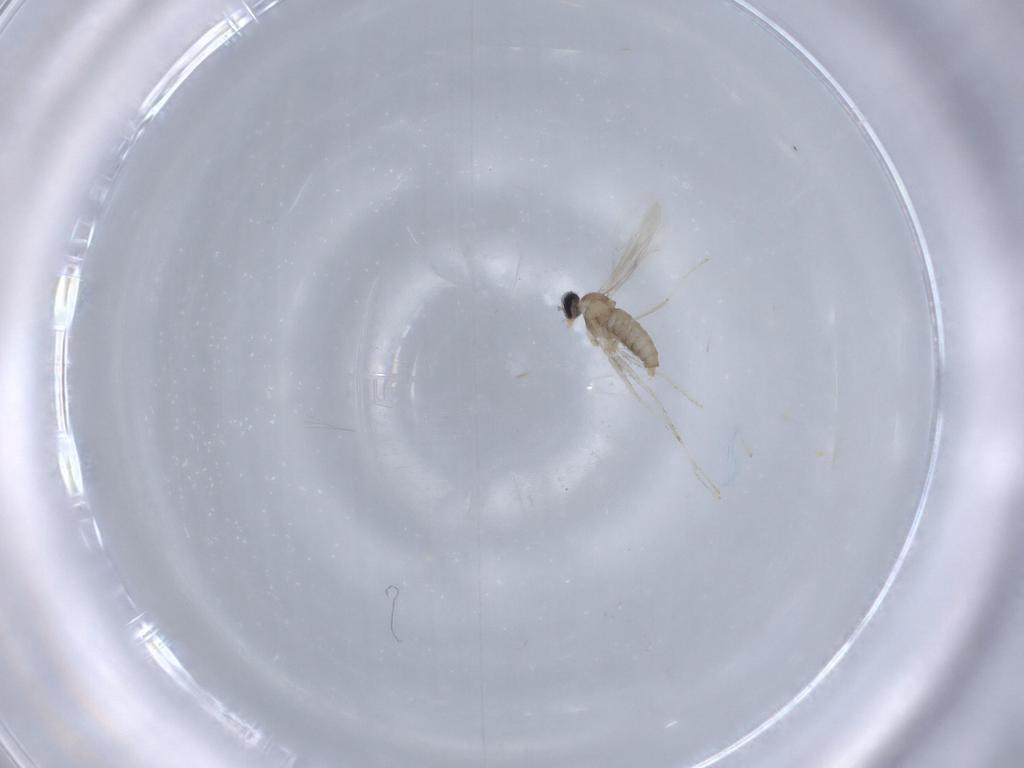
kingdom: Animalia
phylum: Arthropoda
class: Insecta
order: Diptera
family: Cecidomyiidae
